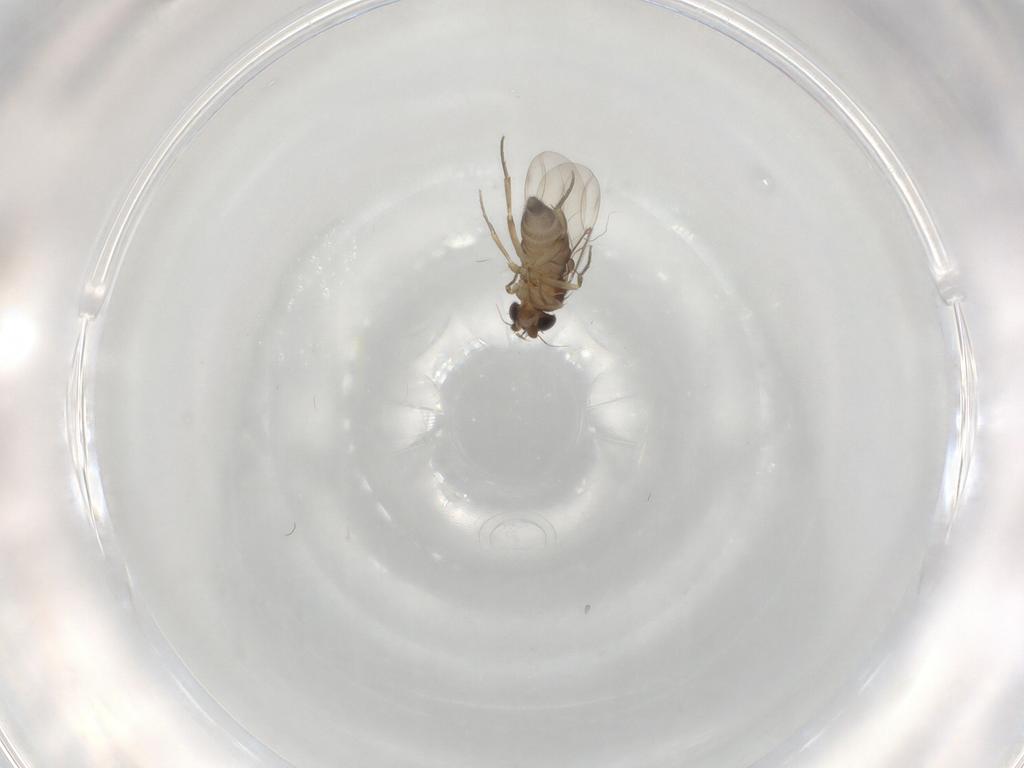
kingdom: Animalia
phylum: Arthropoda
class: Insecta
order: Diptera
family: Phoridae
